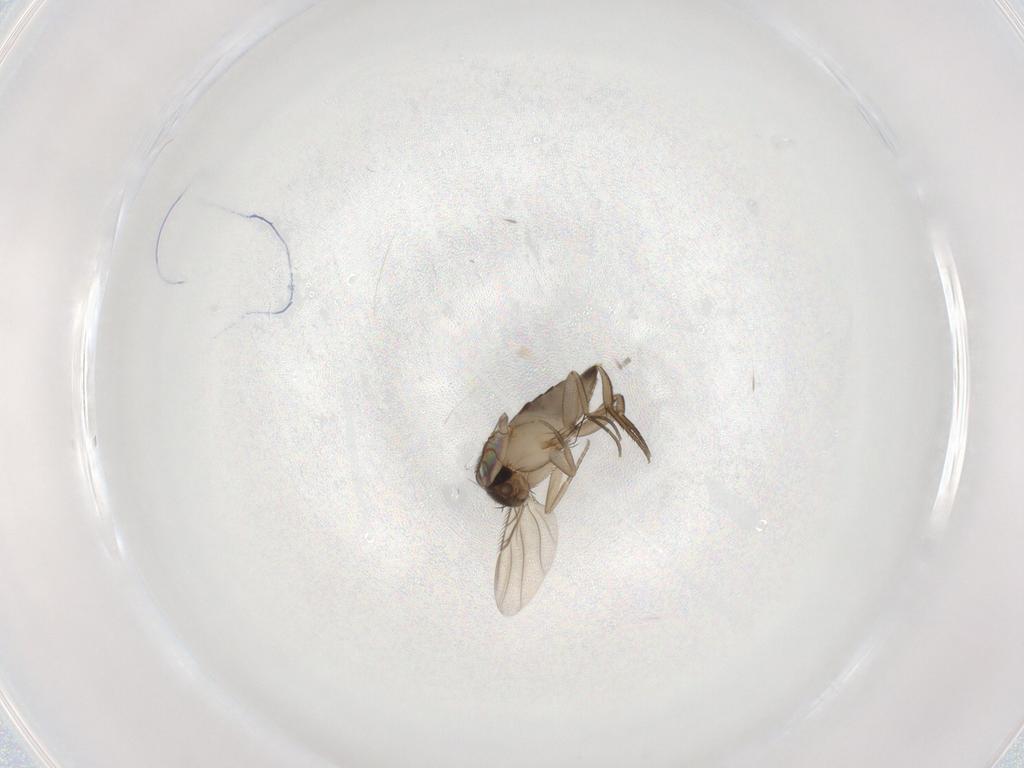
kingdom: Animalia
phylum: Arthropoda
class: Insecta
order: Diptera
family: Phoridae
